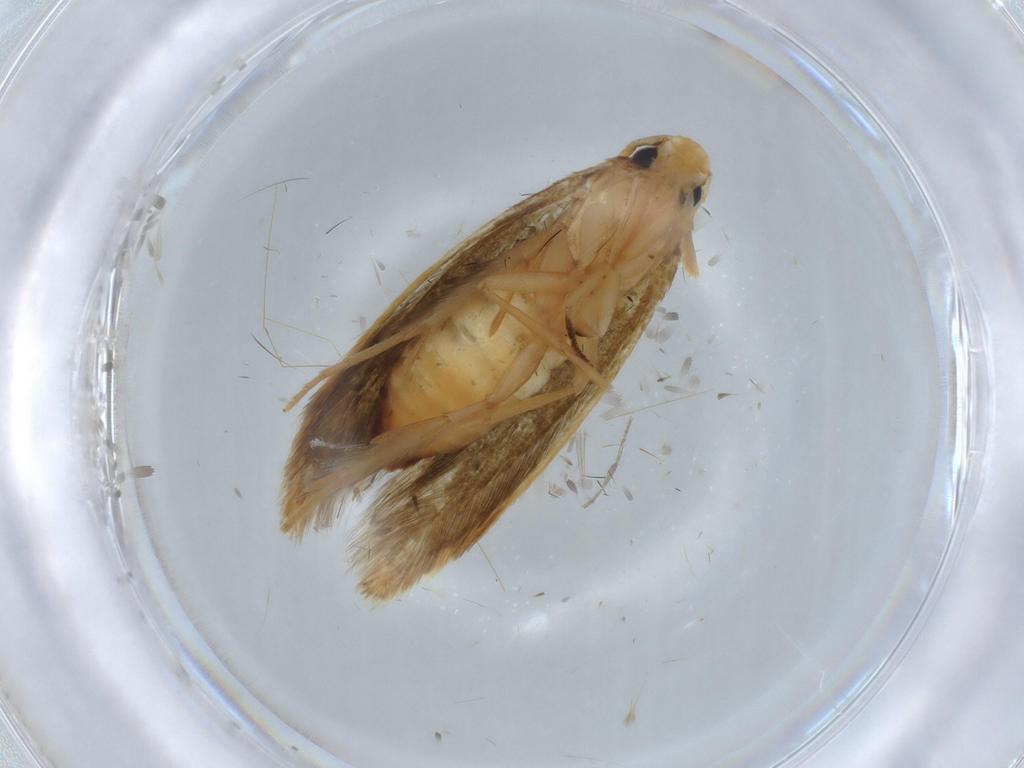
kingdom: Animalia
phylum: Arthropoda
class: Insecta
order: Lepidoptera
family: Tineidae
